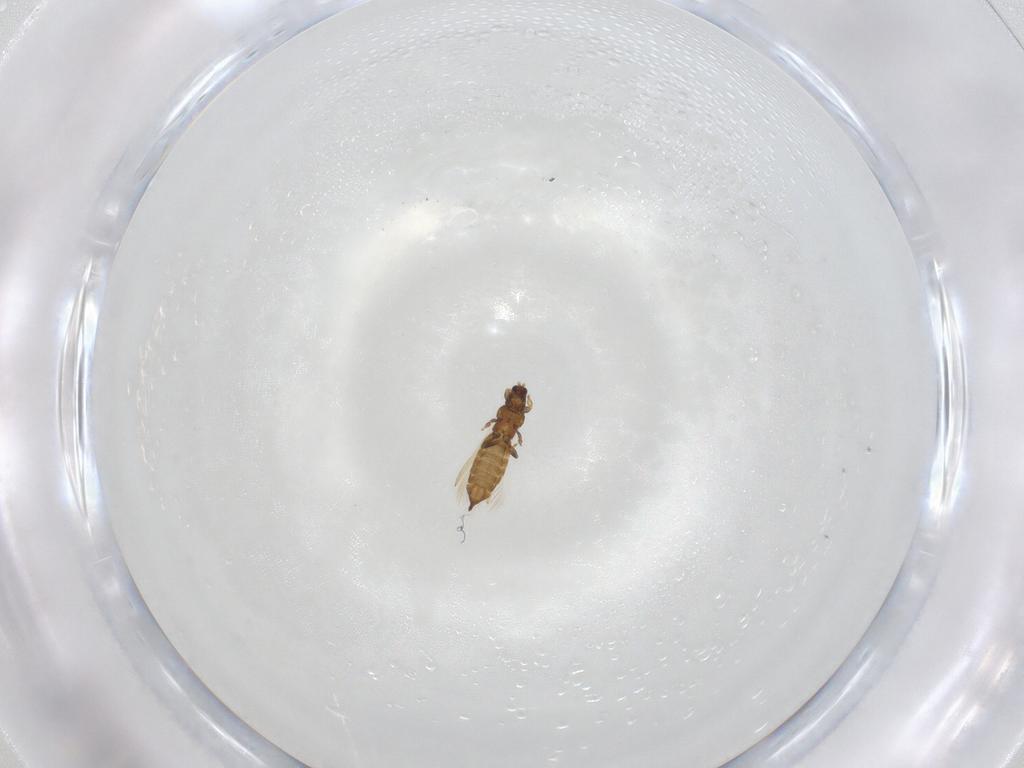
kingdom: Animalia
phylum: Arthropoda
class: Insecta
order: Thysanoptera
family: Thripidae
